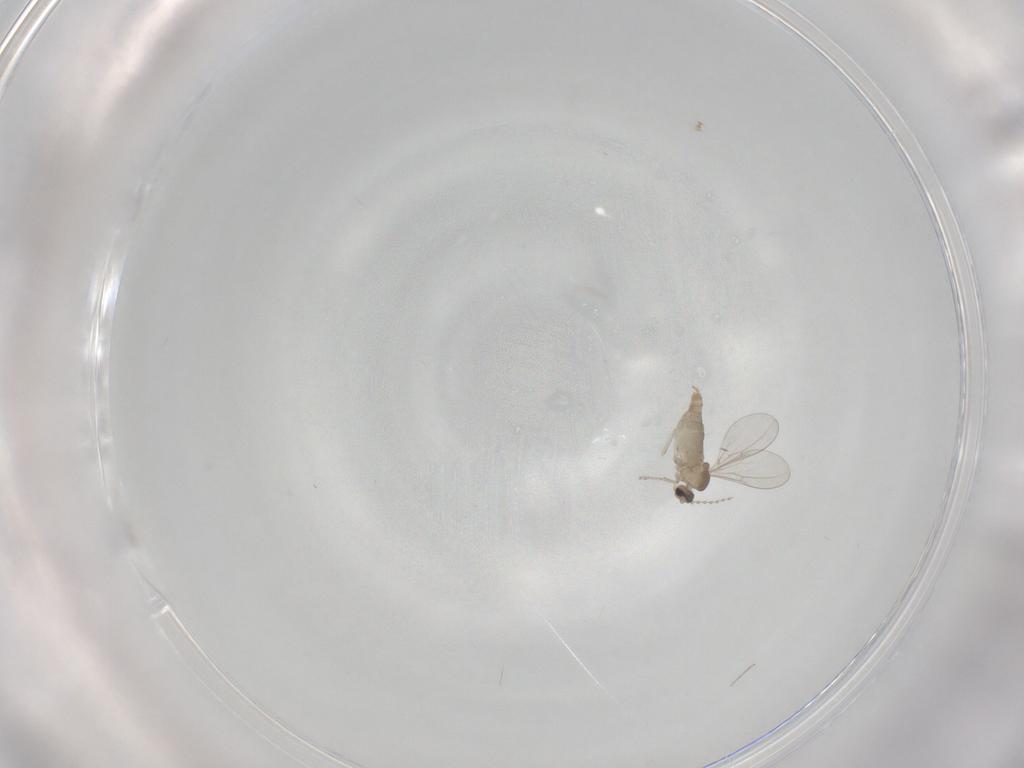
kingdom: Animalia
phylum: Arthropoda
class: Insecta
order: Diptera
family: Cecidomyiidae
